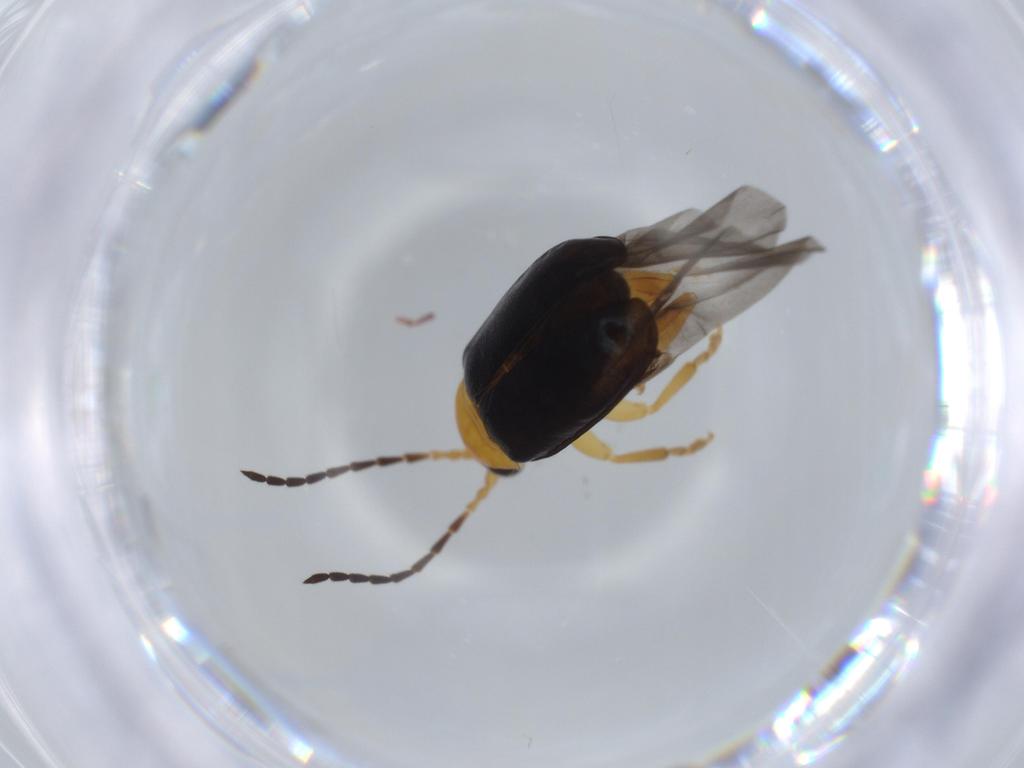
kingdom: Animalia
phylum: Arthropoda
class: Insecta
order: Coleoptera
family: Chrysomelidae
